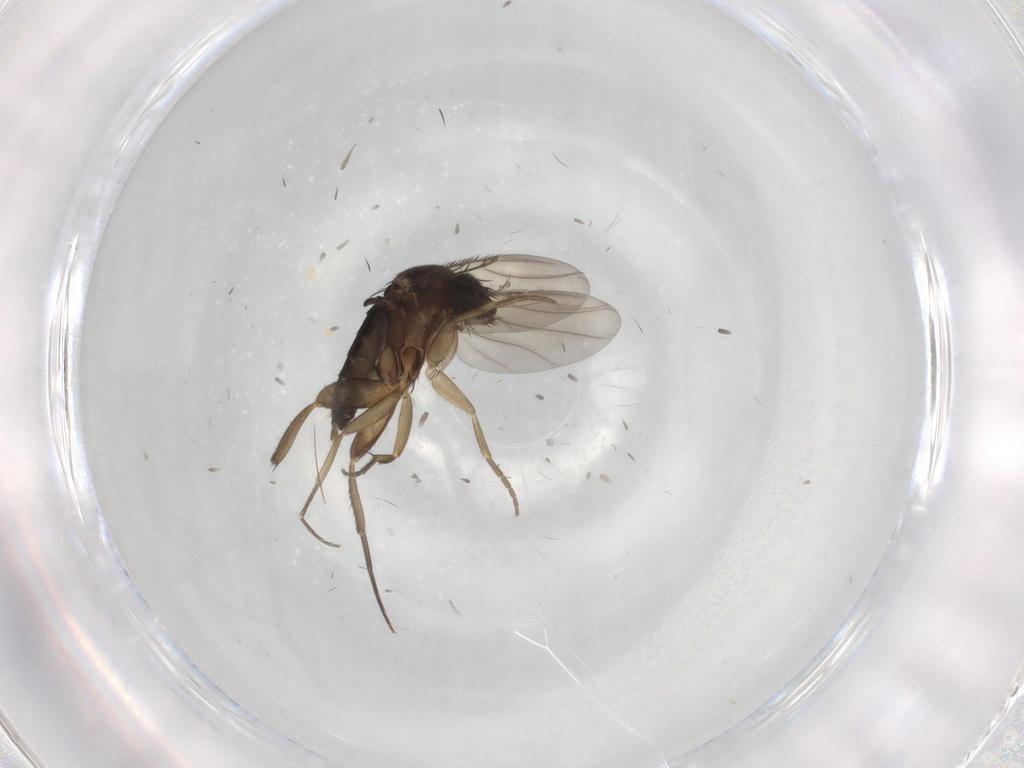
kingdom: Animalia
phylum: Arthropoda
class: Insecta
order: Diptera
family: Phoridae
